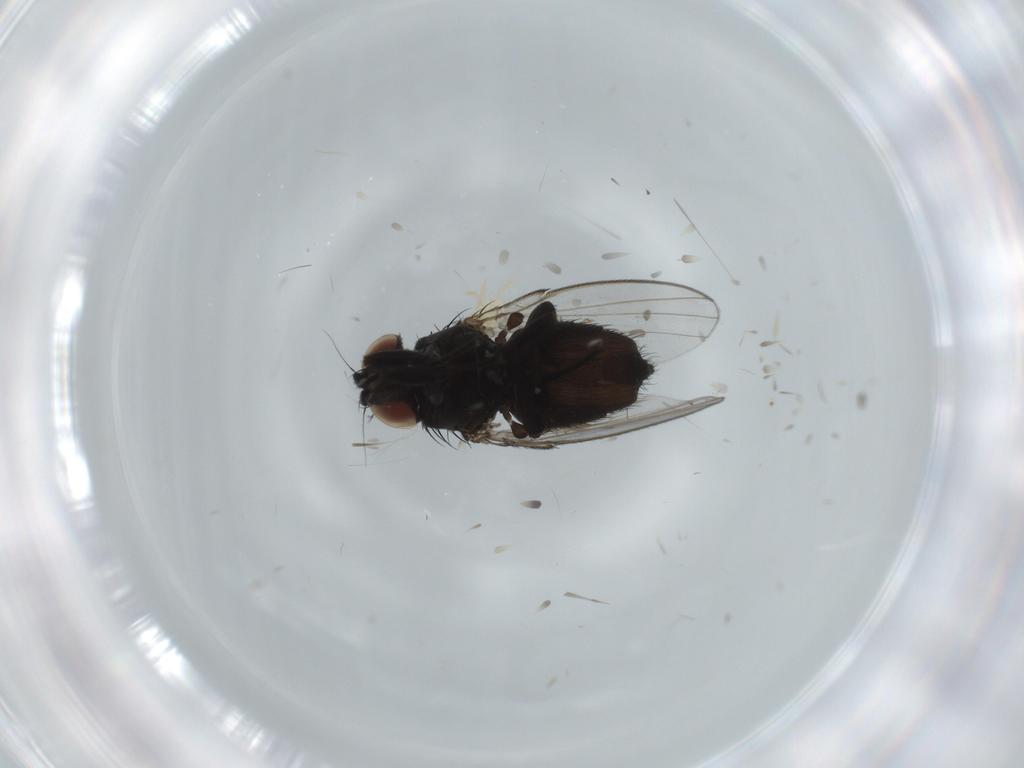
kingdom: Animalia
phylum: Arthropoda
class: Insecta
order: Diptera
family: Milichiidae
